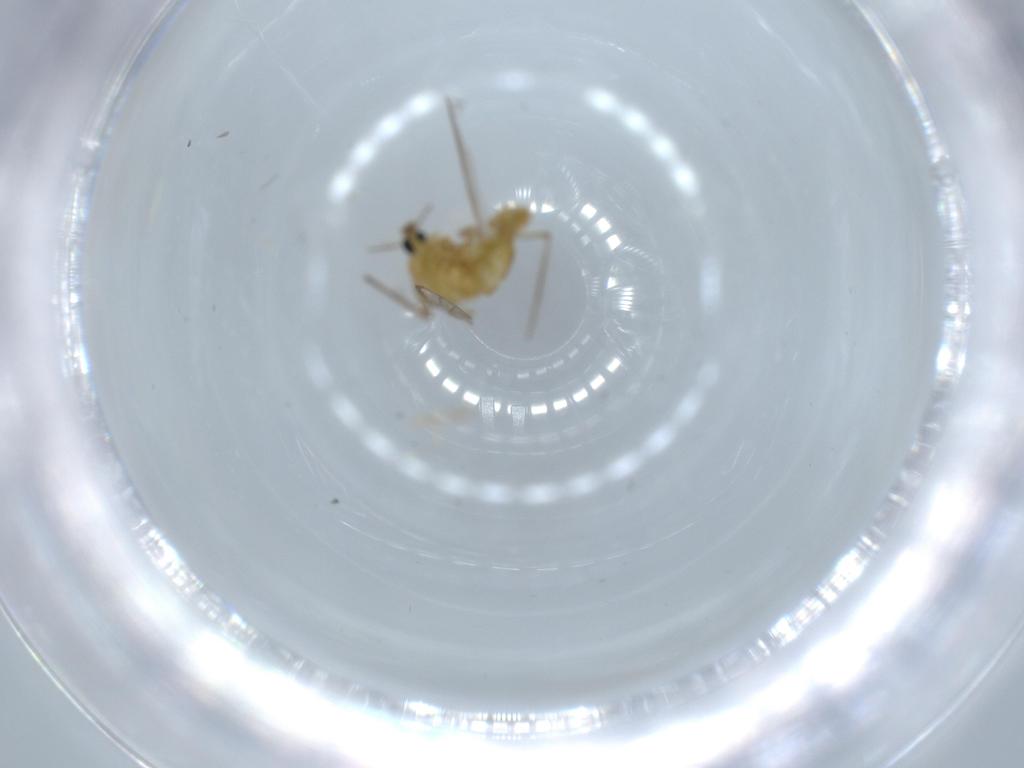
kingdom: Animalia
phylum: Arthropoda
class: Insecta
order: Diptera
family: Chironomidae
